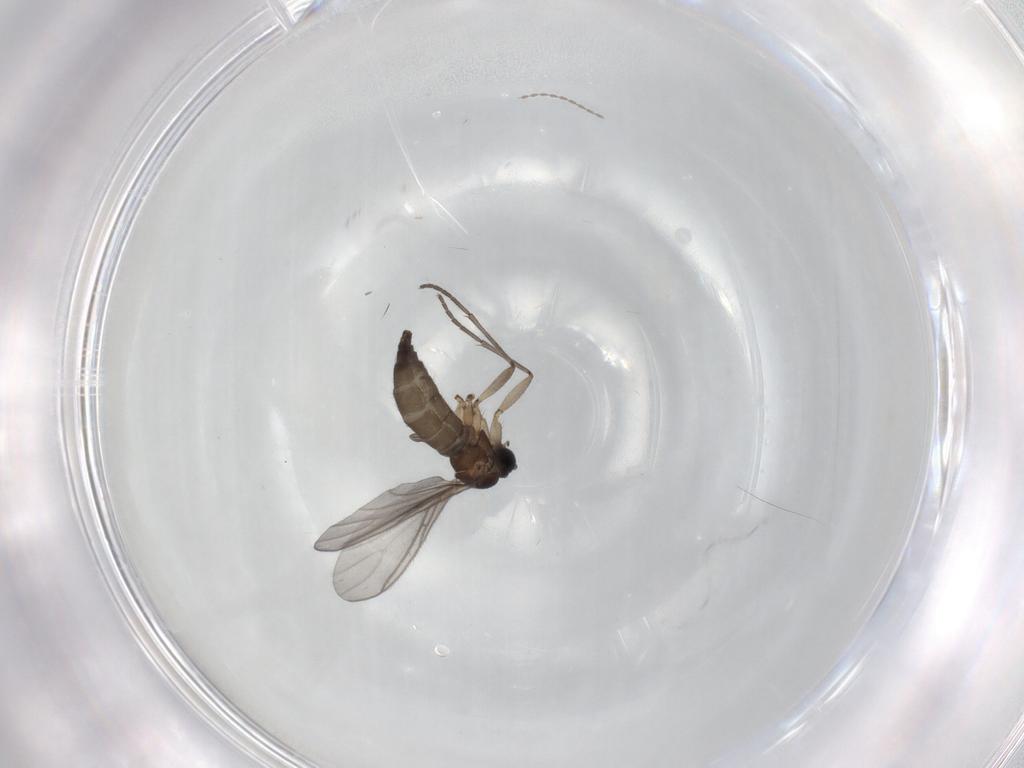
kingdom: Animalia
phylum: Arthropoda
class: Insecta
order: Diptera
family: Sciaridae
